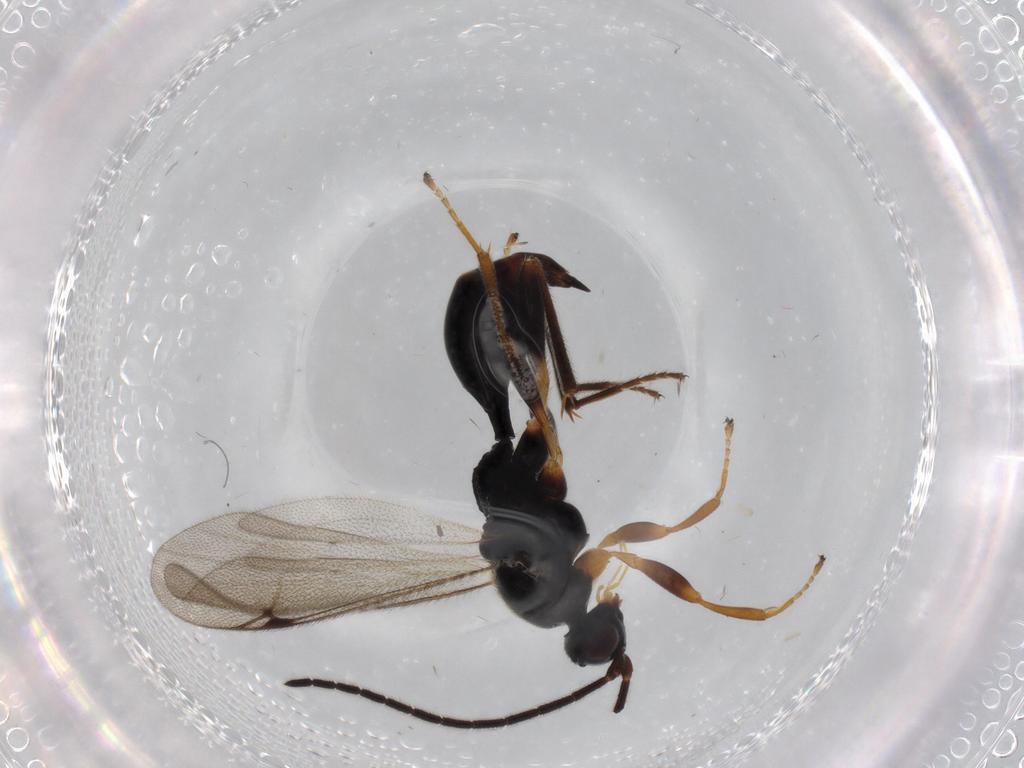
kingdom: Animalia
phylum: Arthropoda
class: Insecta
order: Hymenoptera
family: Proctotrupidae
